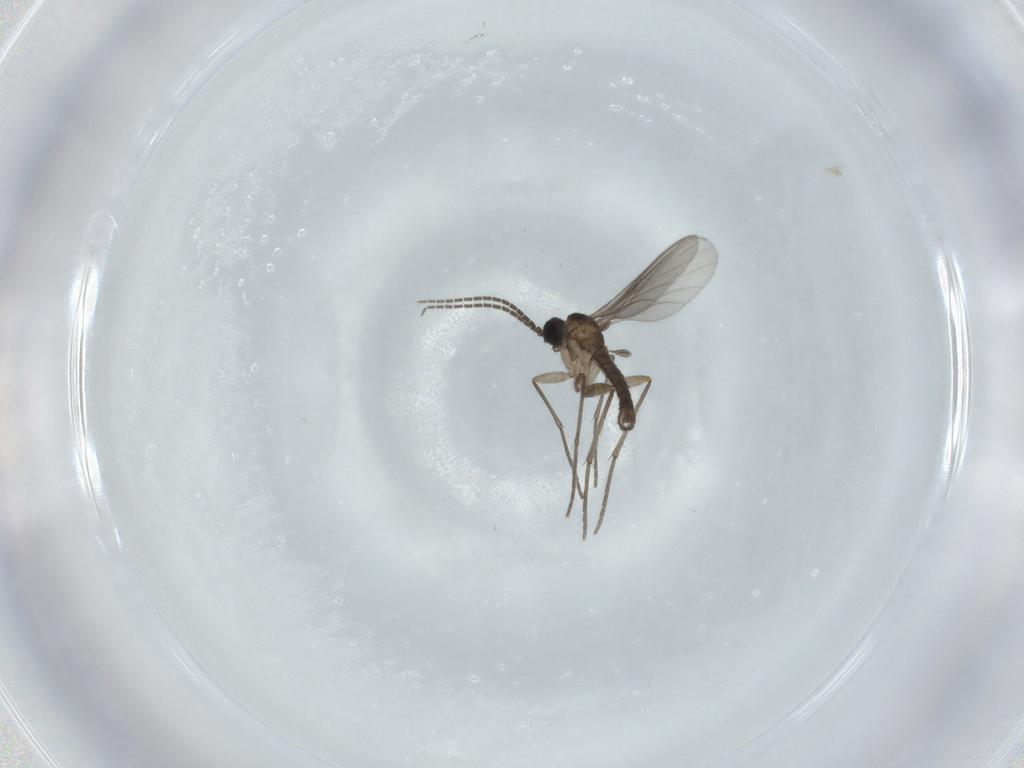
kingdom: Animalia
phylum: Arthropoda
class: Insecta
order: Diptera
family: Sciaridae
